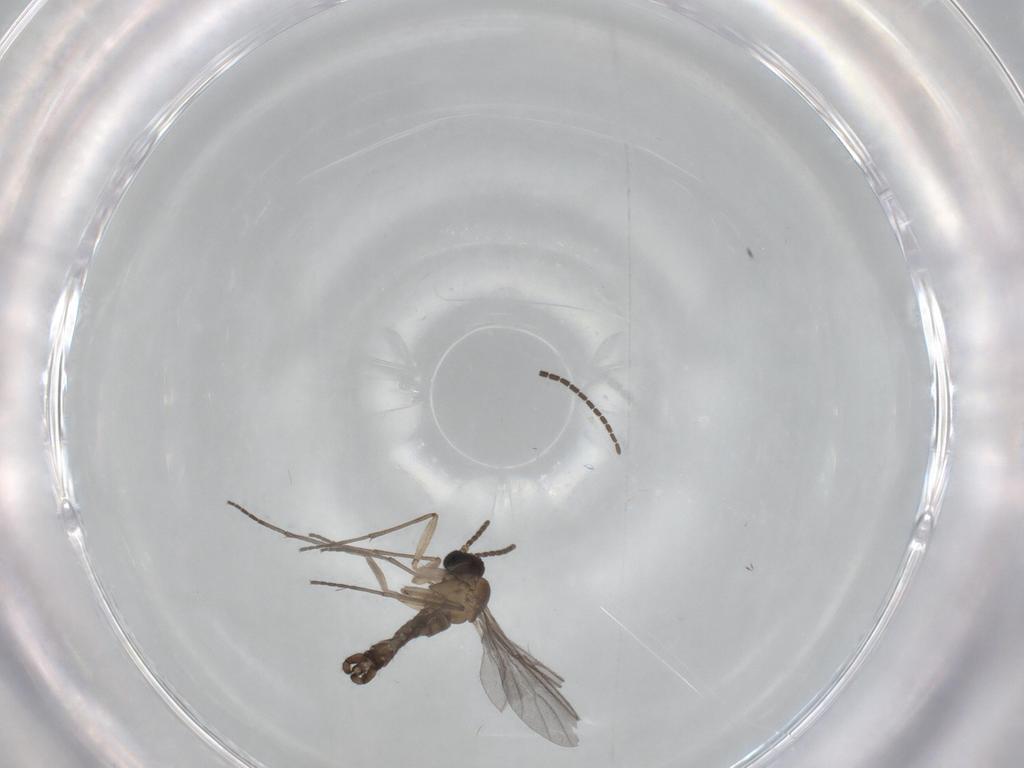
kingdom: Animalia
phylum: Arthropoda
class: Insecta
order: Diptera
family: Sciaridae
